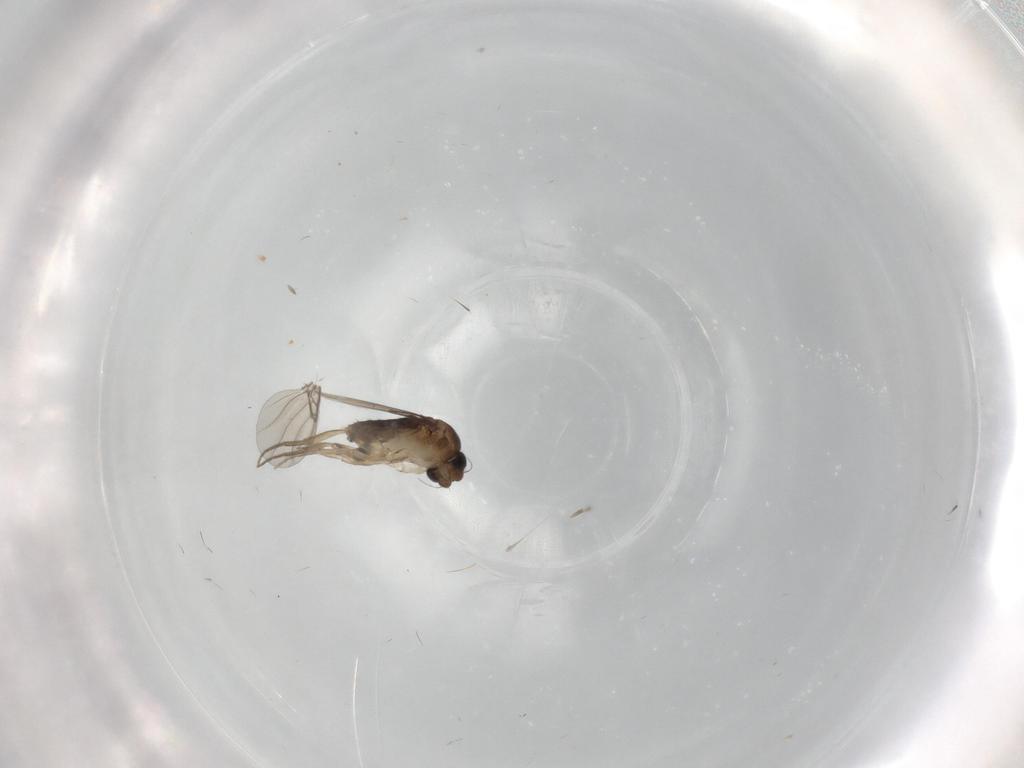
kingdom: Animalia
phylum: Arthropoda
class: Insecta
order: Diptera
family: Phoridae
